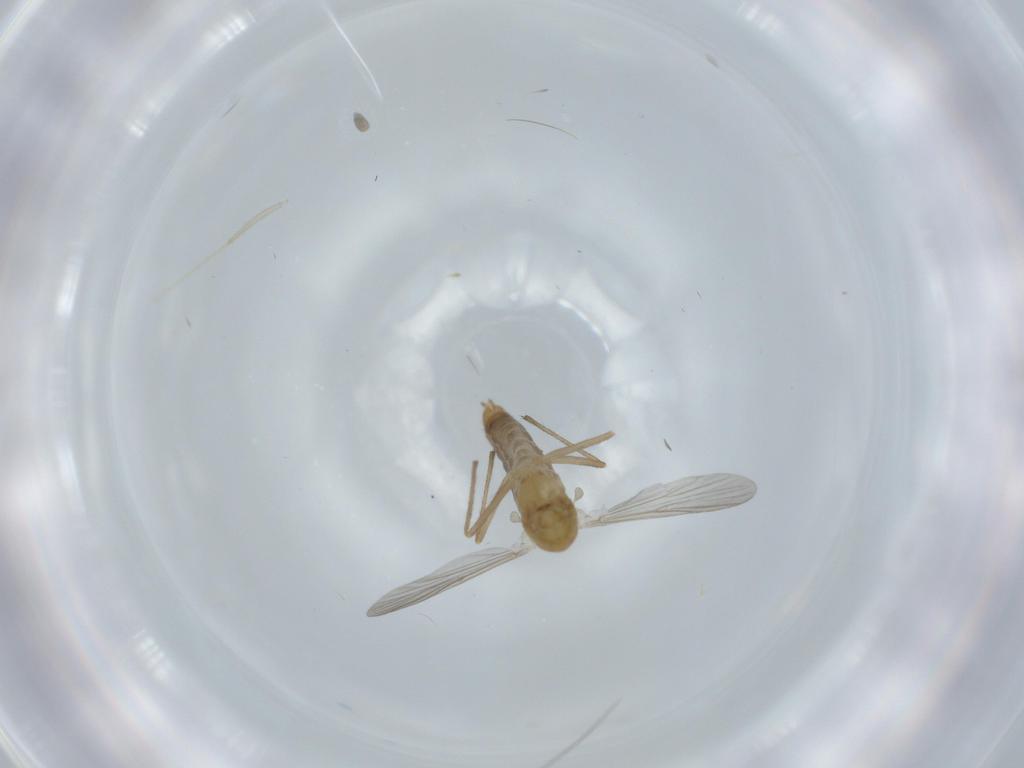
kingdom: Animalia
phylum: Arthropoda
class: Insecta
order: Diptera
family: Chironomidae
